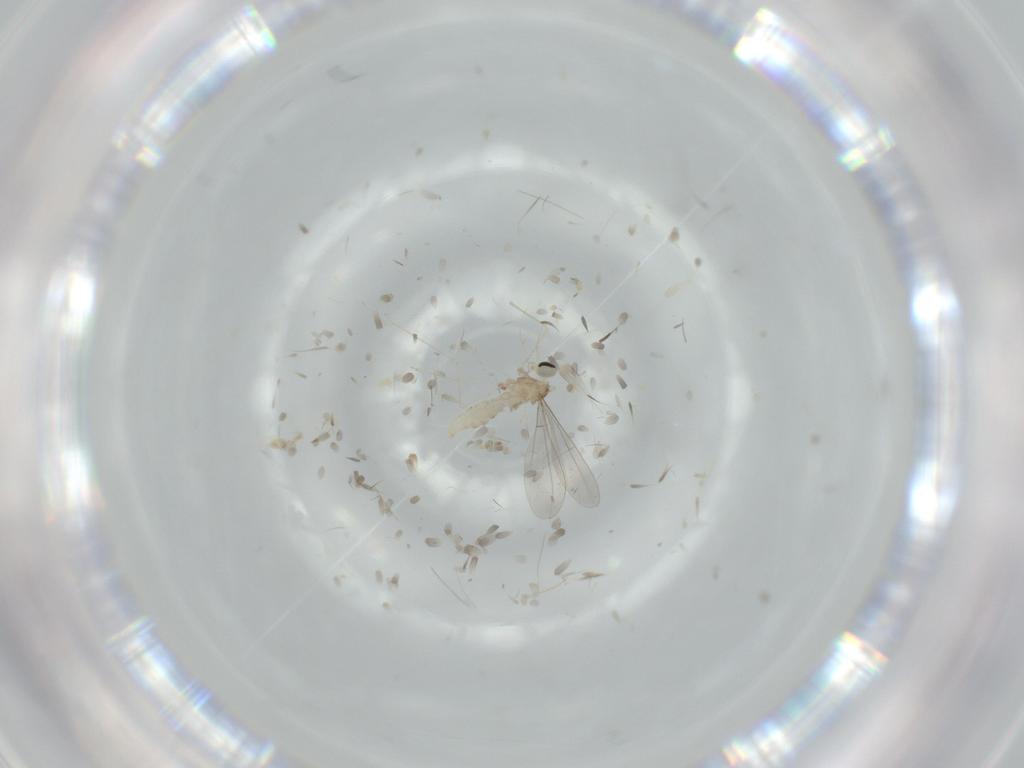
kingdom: Animalia
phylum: Arthropoda
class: Insecta
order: Diptera
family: Cecidomyiidae
